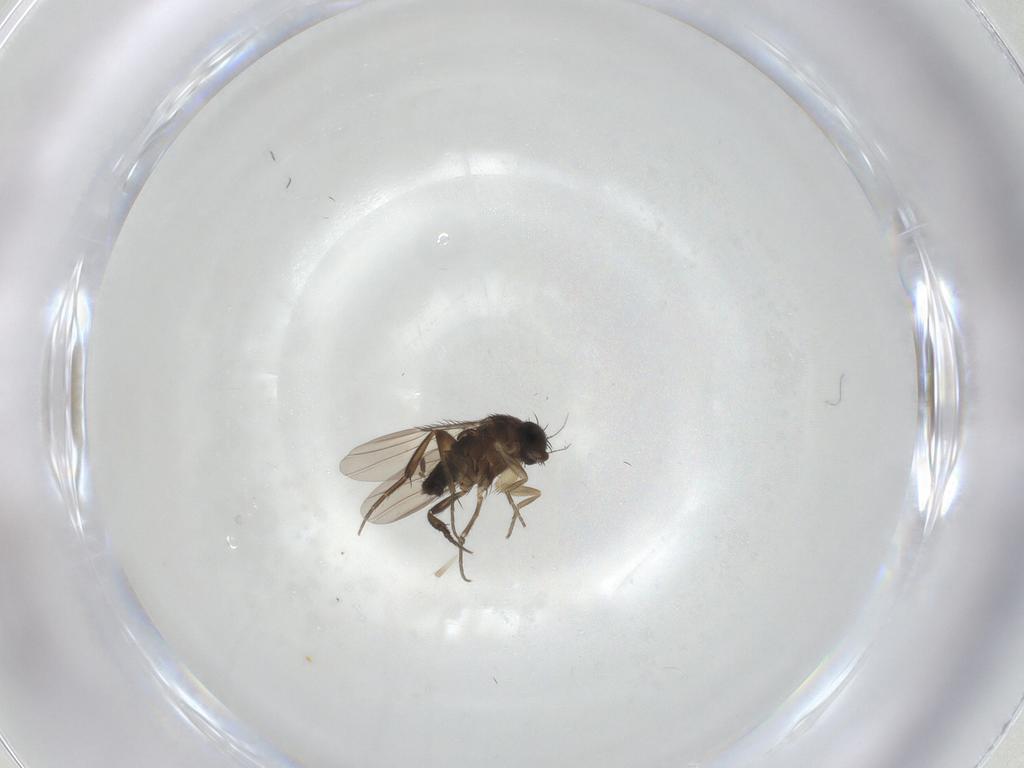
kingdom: Animalia
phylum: Arthropoda
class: Insecta
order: Diptera
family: Phoridae
